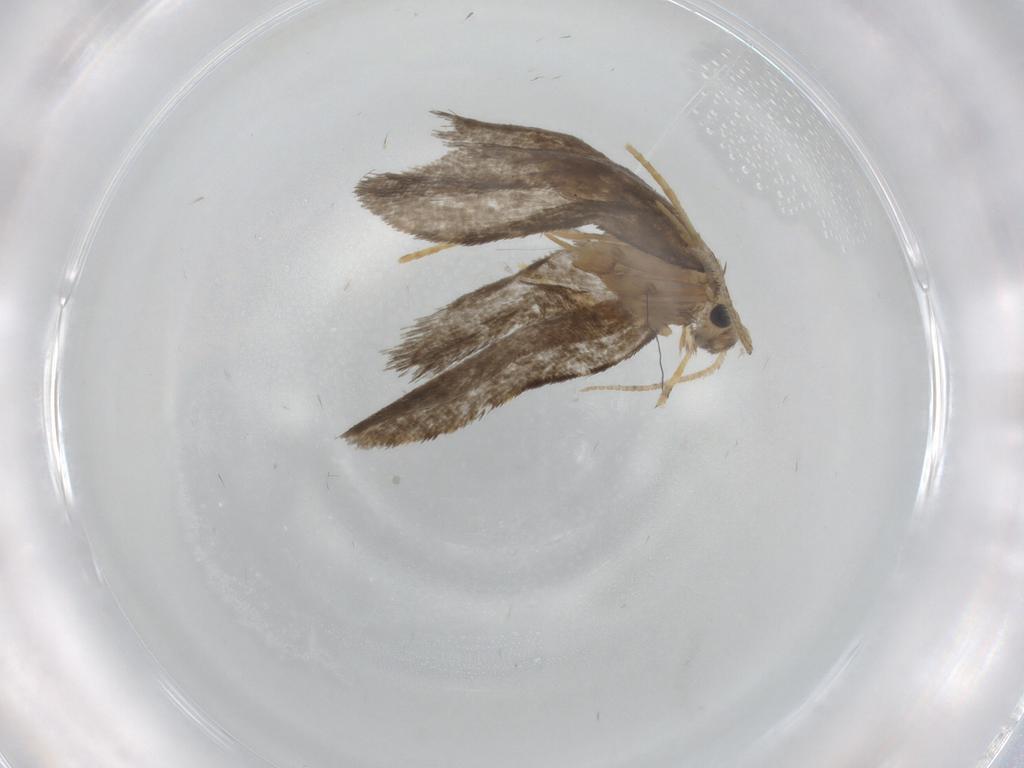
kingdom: Animalia
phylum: Arthropoda
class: Insecta
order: Lepidoptera
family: Psychidae
